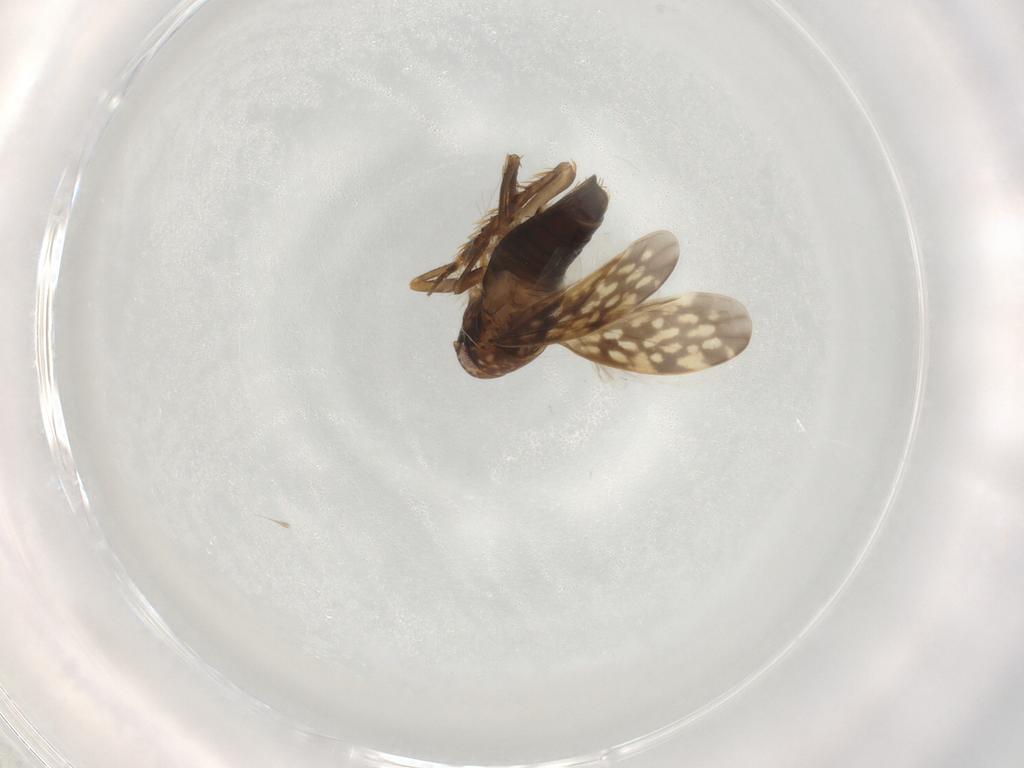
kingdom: Animalia
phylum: Arthropoda
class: Insecta
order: Hemiptera
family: Cicadellidae
